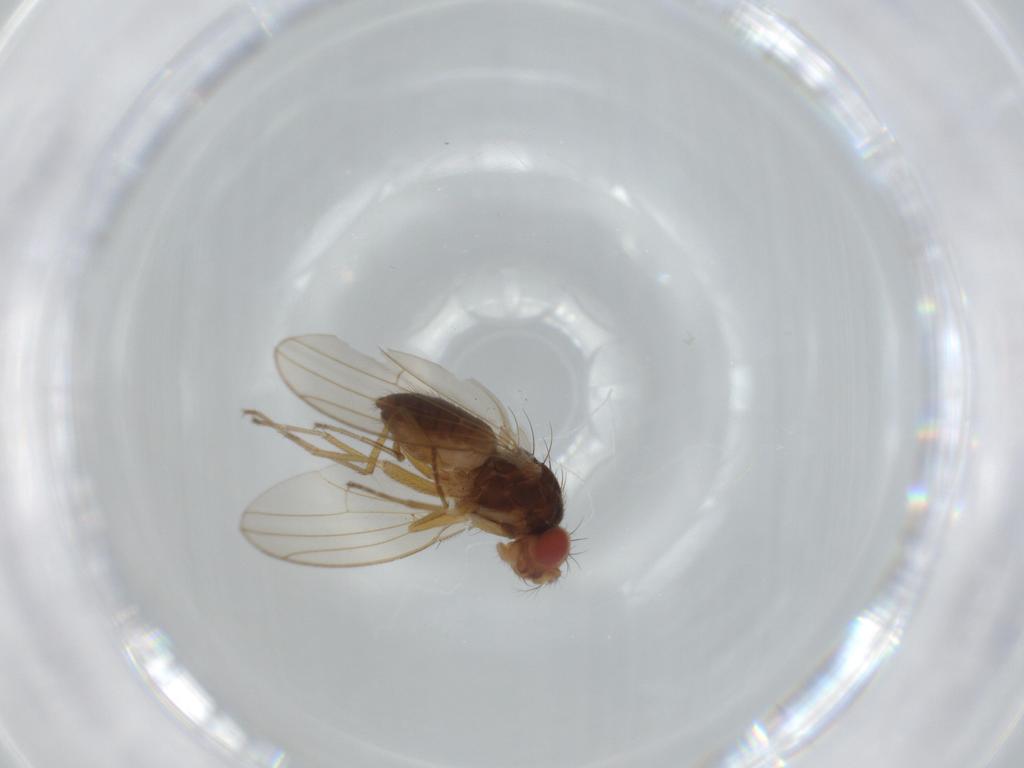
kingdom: Animalia
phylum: Arthropoda
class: Insecta
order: Diptera
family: Drosophilidae
